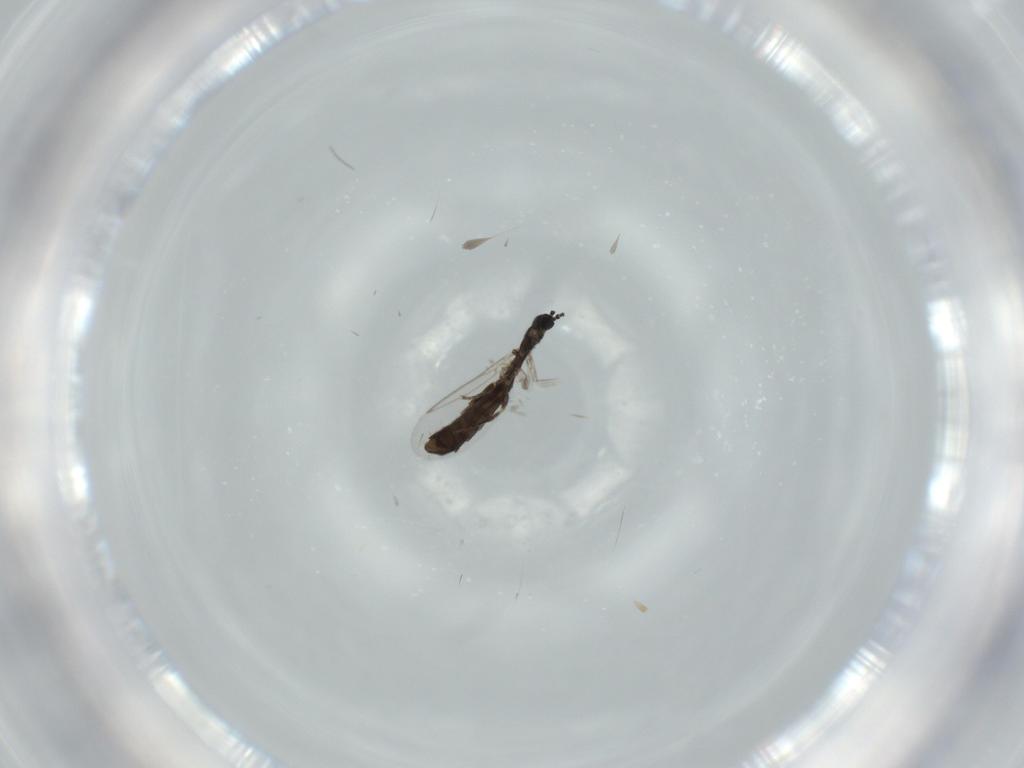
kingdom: Animalia
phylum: Arthropoda
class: Insecta
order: Diptera
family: Scatopsidae
